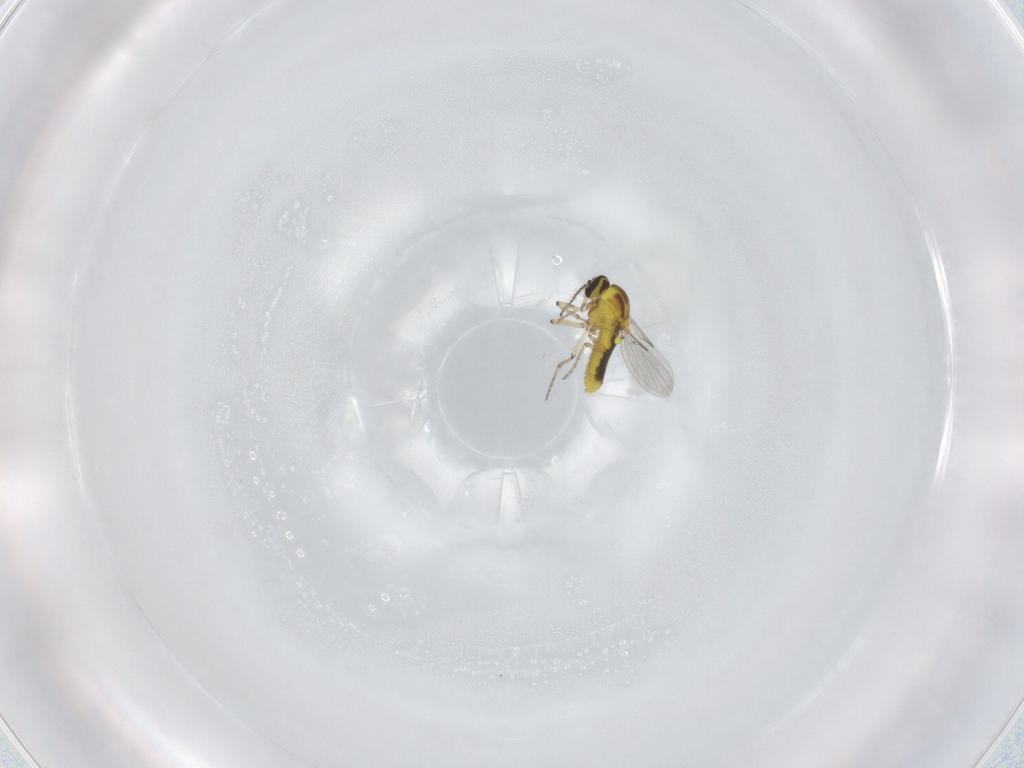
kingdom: Animalia
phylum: Arthropoda
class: Insecta
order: Diptera
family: Ceratopogonidae
